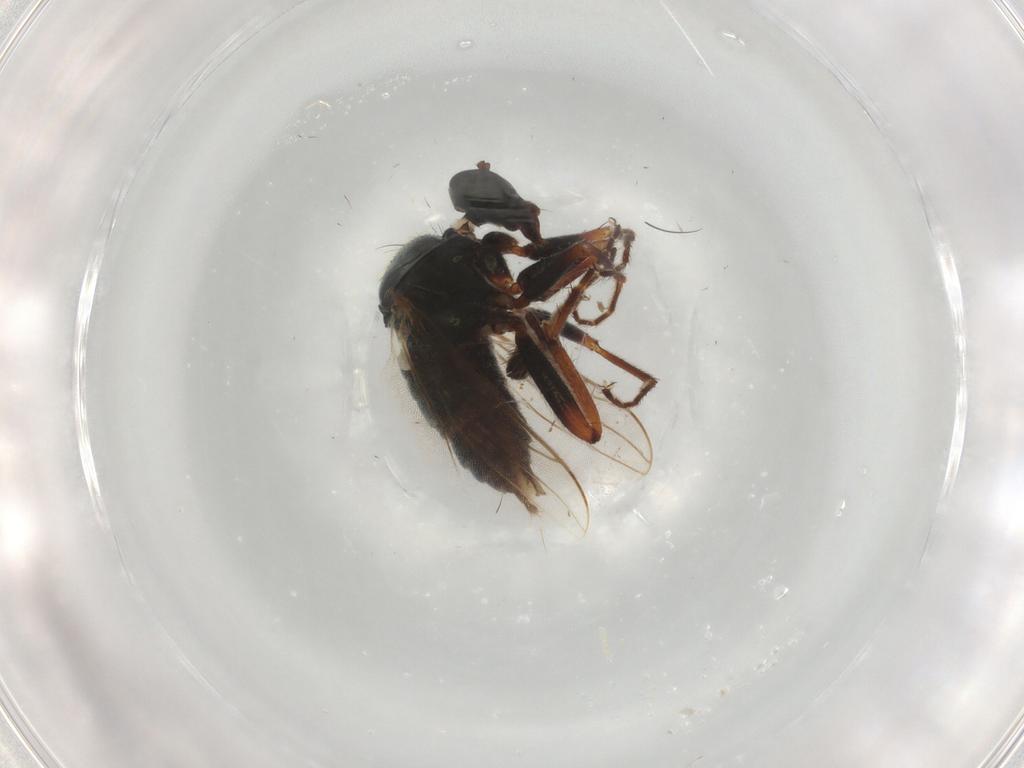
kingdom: Animalia
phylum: Arthropoda
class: Insecta
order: Diptera
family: Hybotidae
